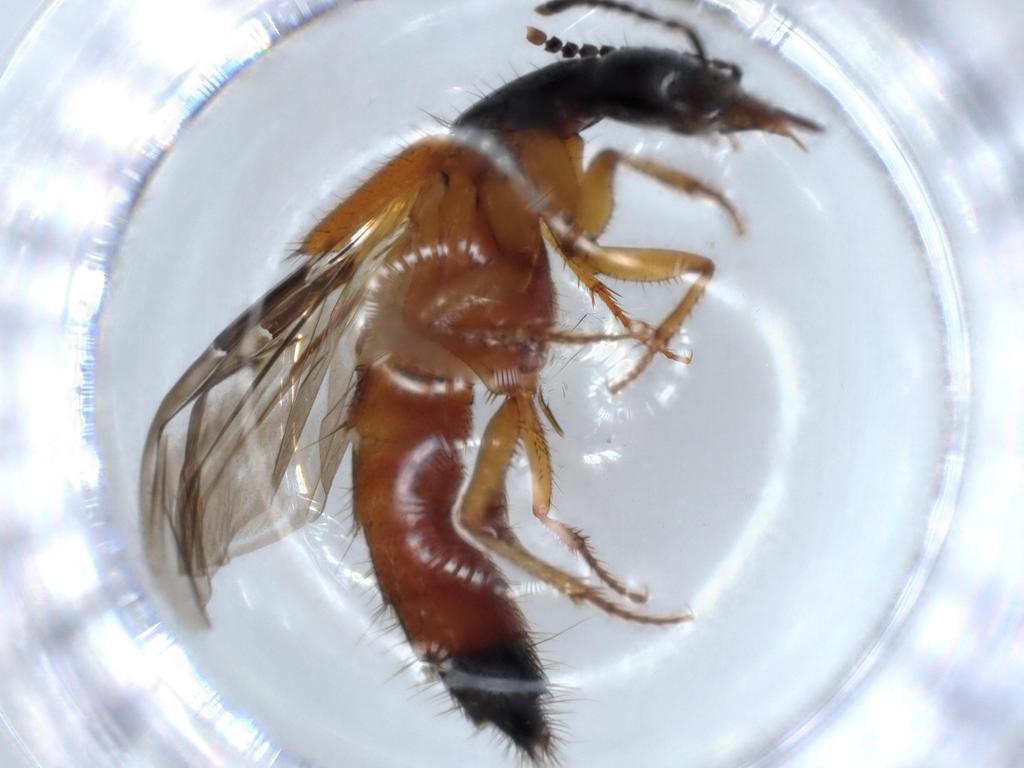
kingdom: Animalia
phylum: Arthropoda
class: Insecta
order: Coleoptera
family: Staphylinidae
